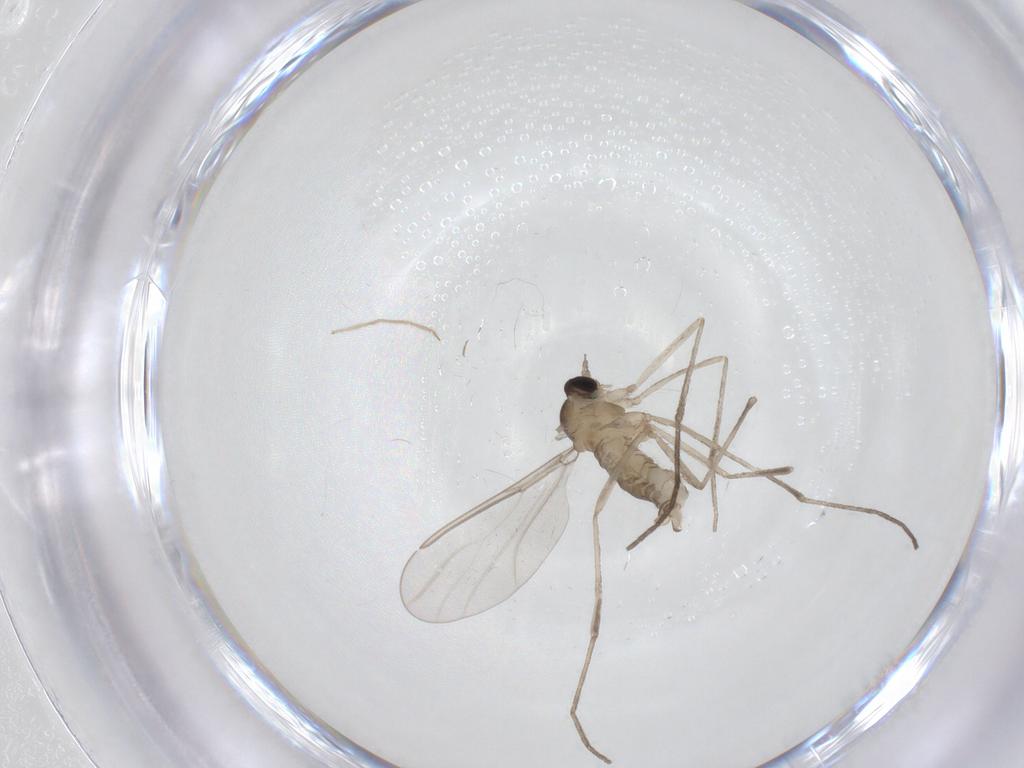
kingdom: Animalia
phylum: Arthropoda
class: Insecta
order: Diptera
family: Cecidomyiidae
